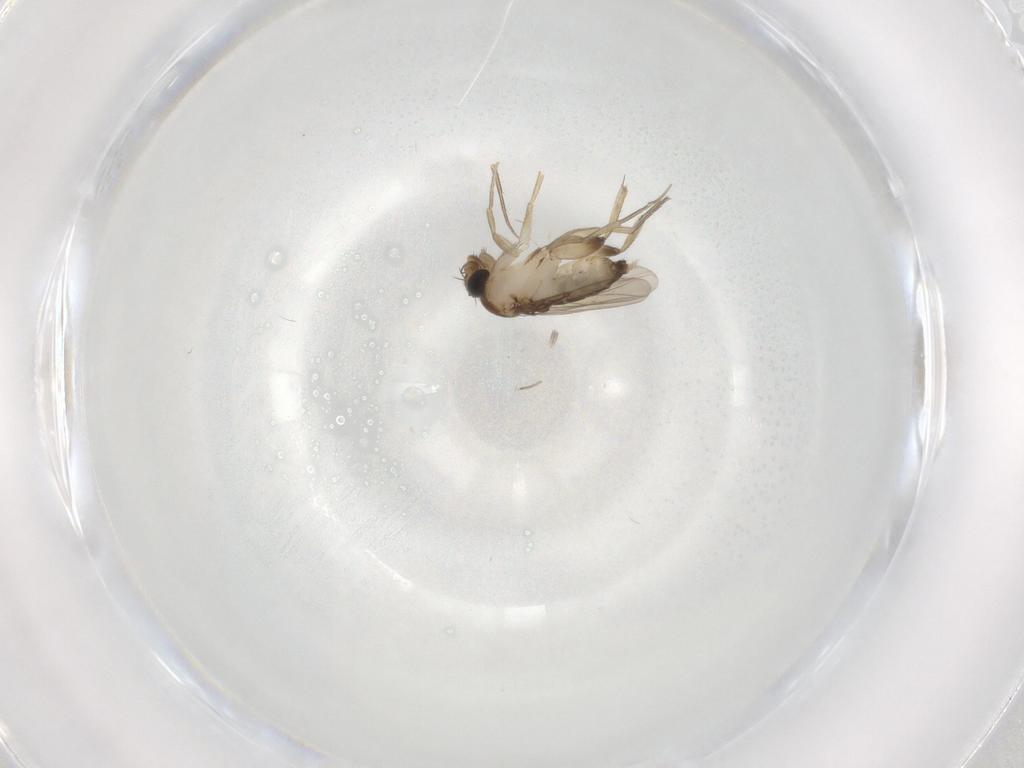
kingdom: Animalia
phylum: Arthropoda
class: Insecta
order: Diptera
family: Phoridae
